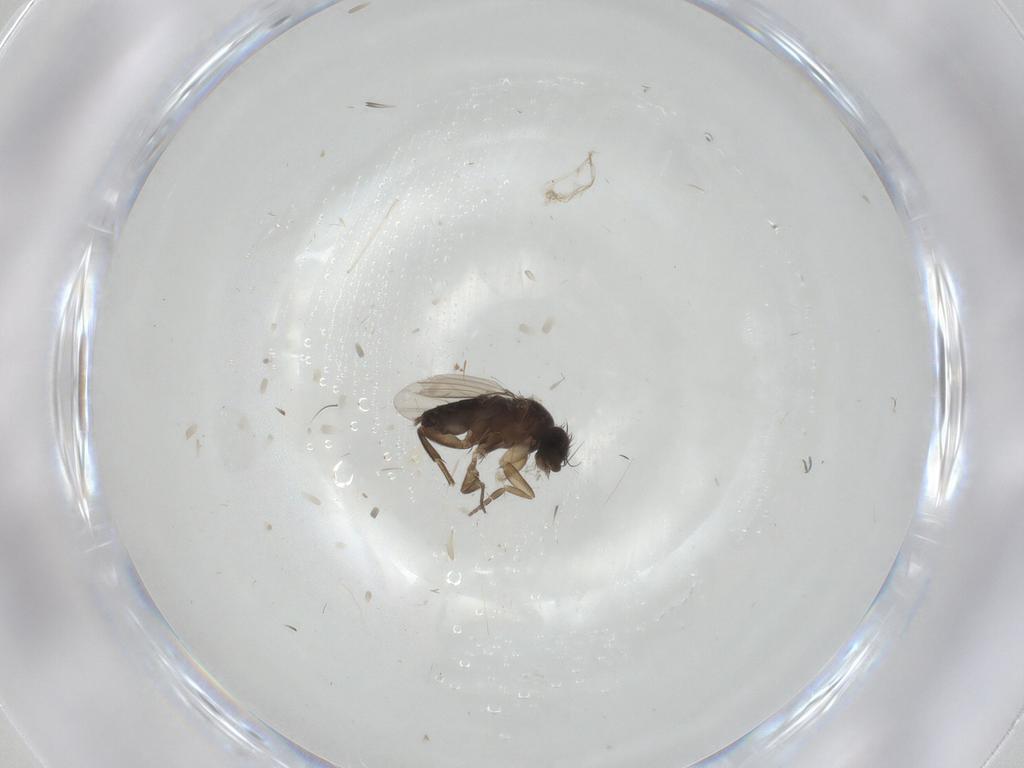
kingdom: Animalia
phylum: Arthropoda
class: Insecta
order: Diptera
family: Phoridae
